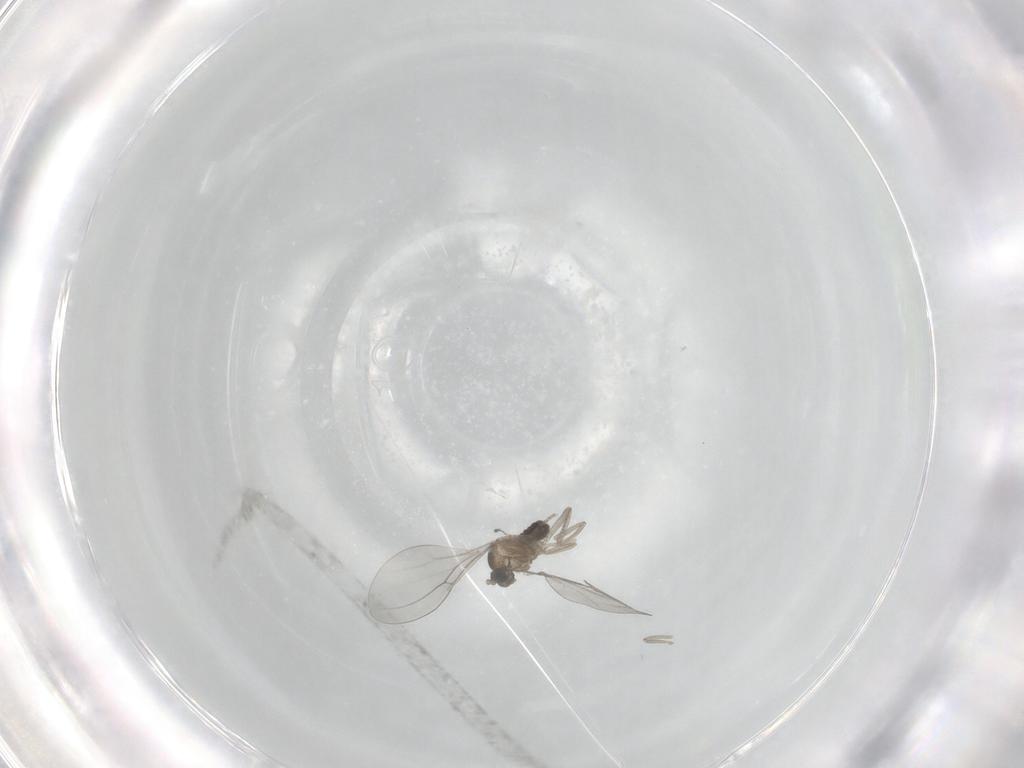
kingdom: Animalia
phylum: Arthropoda
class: Insecta
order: Diptera
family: Cecidomyiidae
